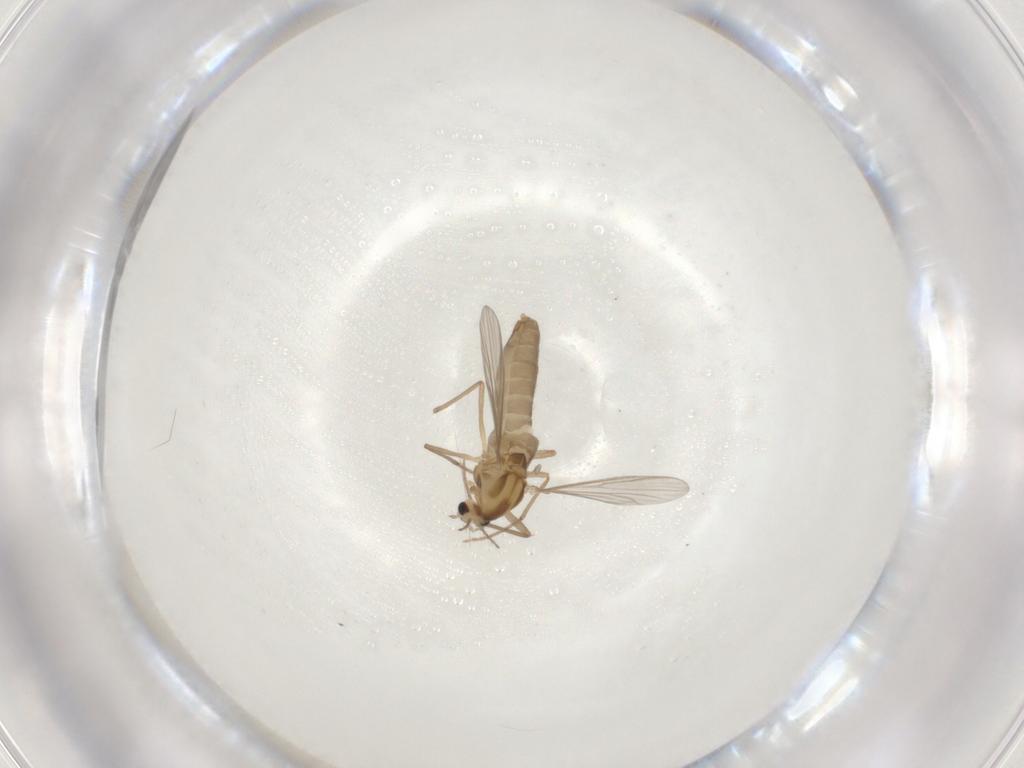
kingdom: Animalia
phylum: Arthropoda
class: Insecta
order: Diptera
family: Chironomidae
